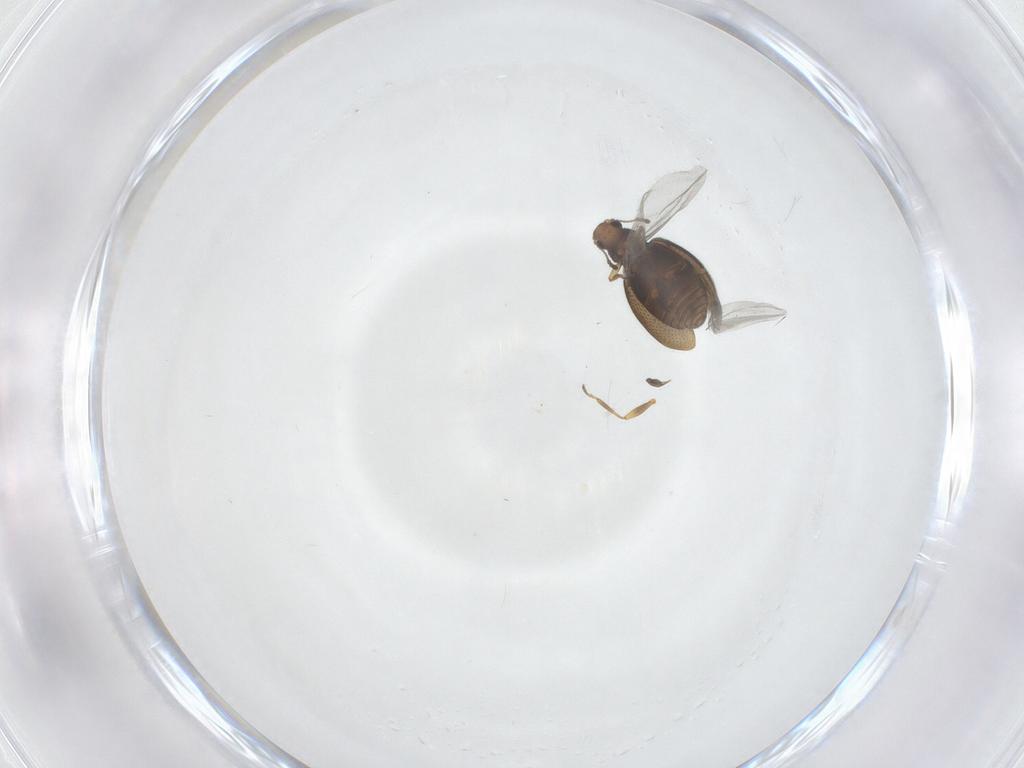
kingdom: Animalia
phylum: Arthropoda
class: Insecta
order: Coleoptera
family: Latridiidae
